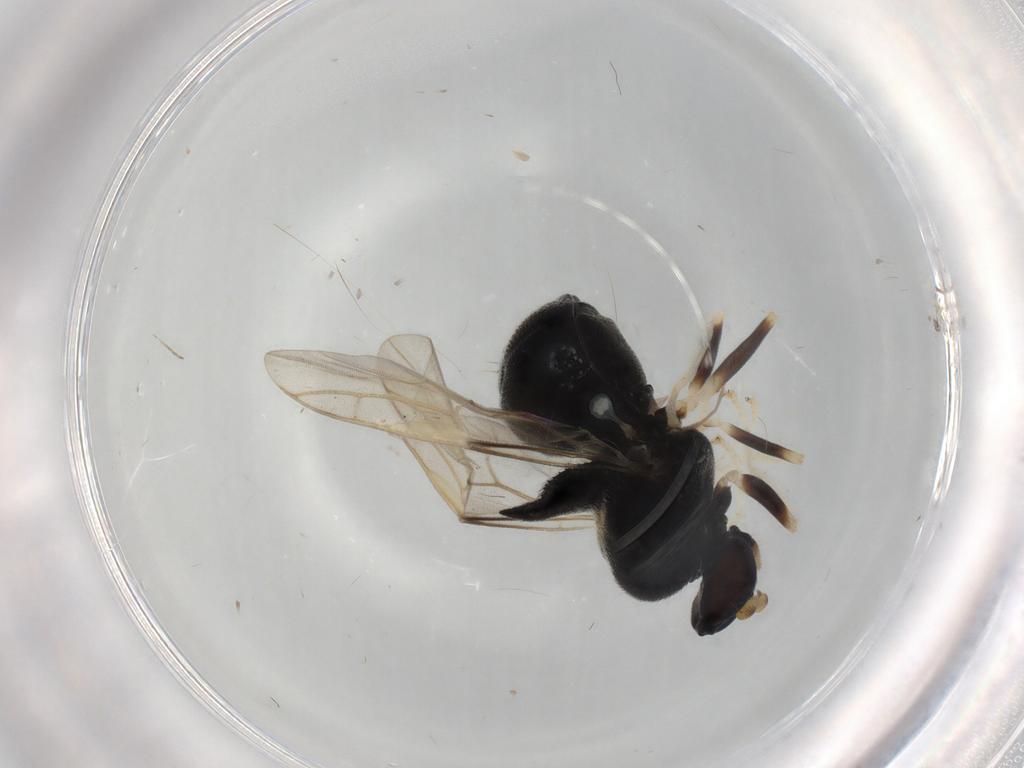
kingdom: Animalia
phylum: Arthropoda
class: Insecta
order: Diptera
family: Stratiomyidae
